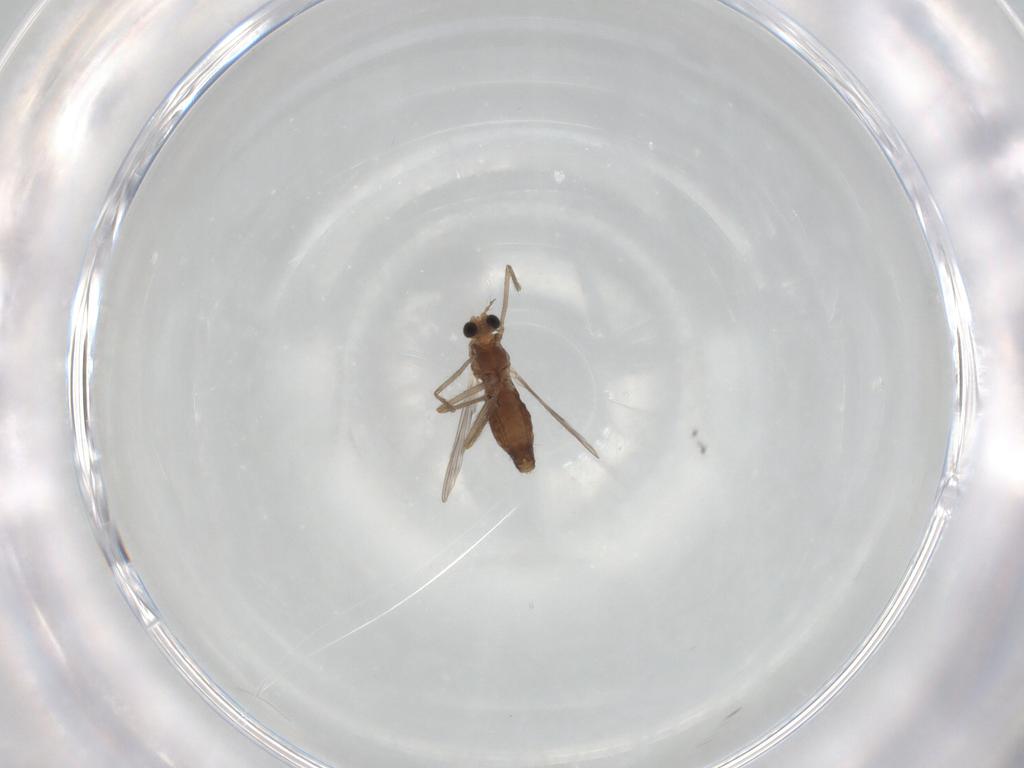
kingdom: Animalia
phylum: Arthropoda
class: Insecta
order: Diptera
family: Chironomidae
